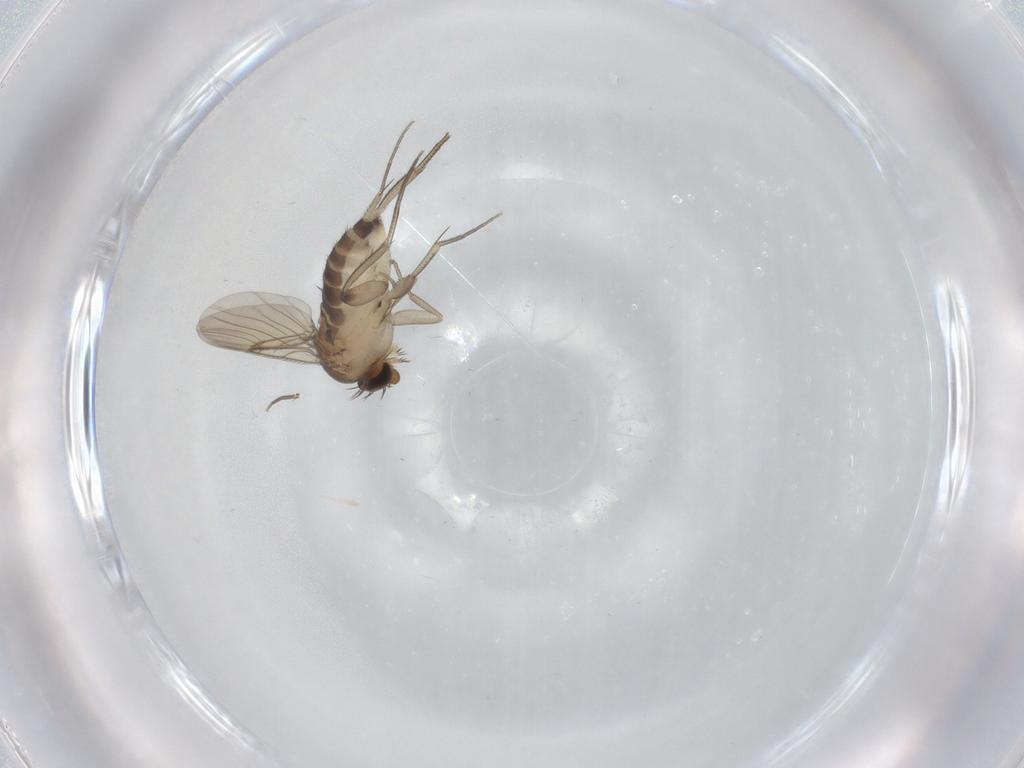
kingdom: Animalia
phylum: Arthropoda
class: Insecta
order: Diptera
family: Phoridae
